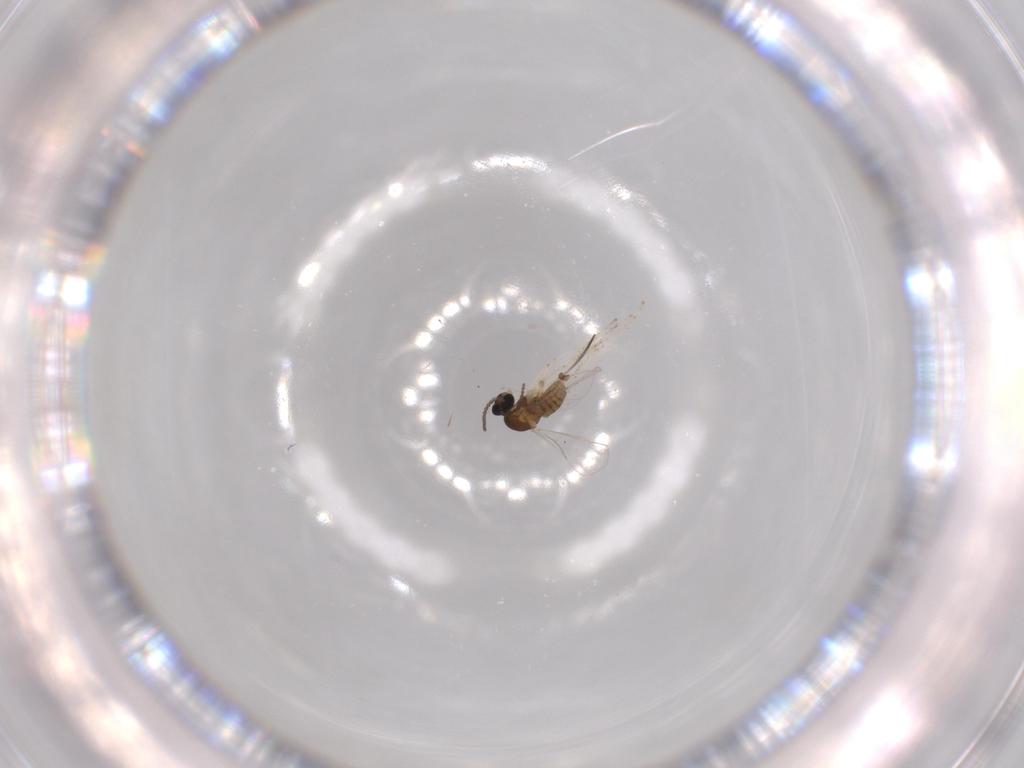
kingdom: Animalia
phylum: Arthropoda
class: Insecta
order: Diptera
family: Cecidomyiidae
